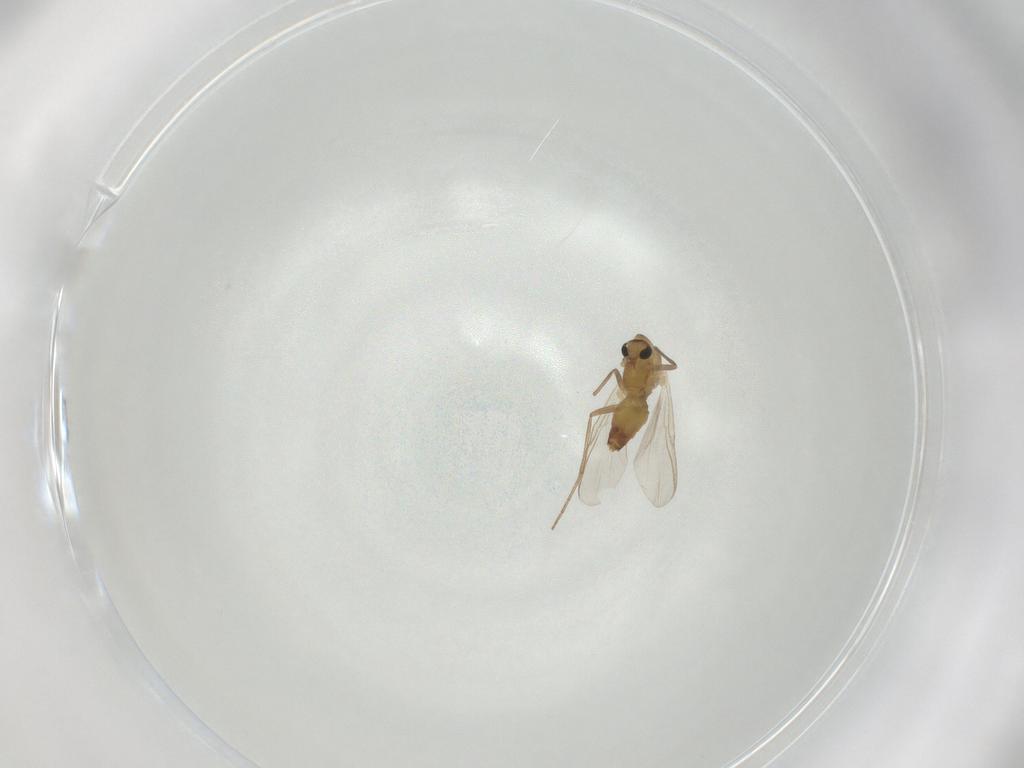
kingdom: Animalia
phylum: Arthropoda
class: Insecta
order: Diptera
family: Chironomidae
